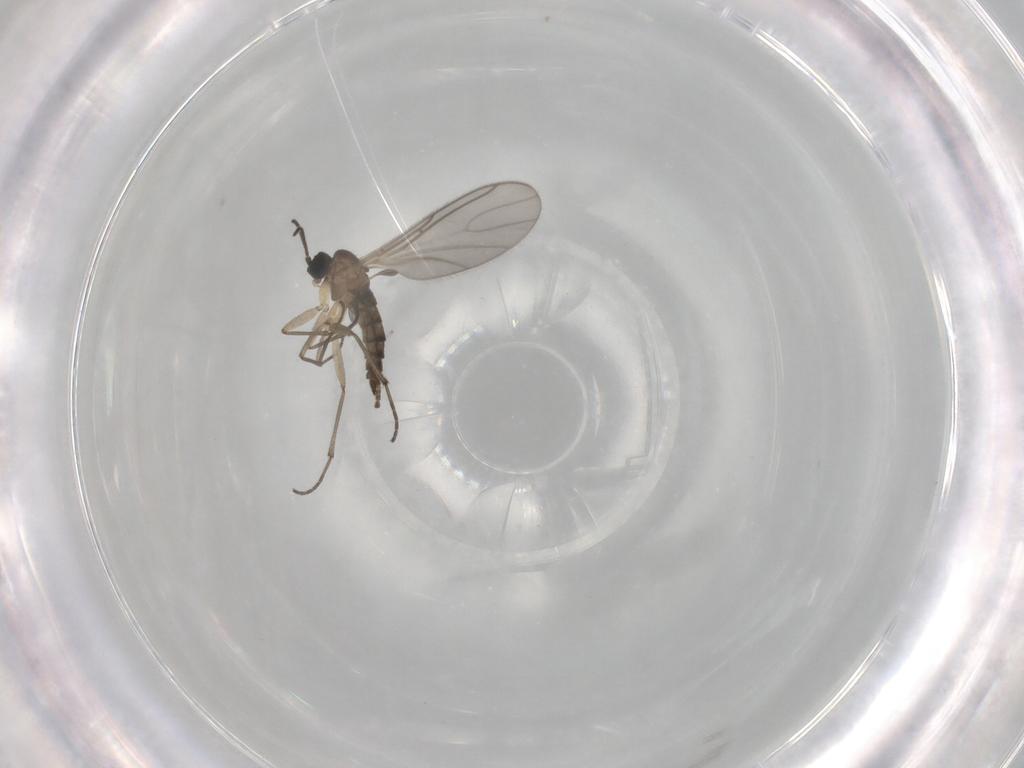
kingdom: Animalia
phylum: Arthropoda
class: Insecta
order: Diptera
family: Sciaridae
